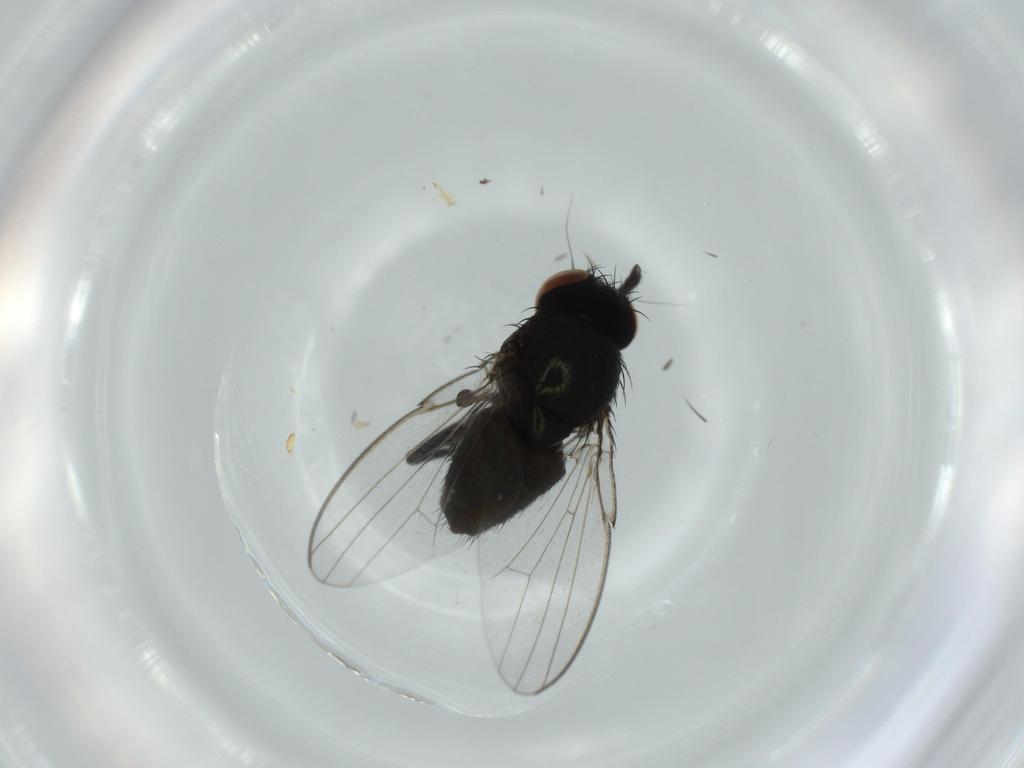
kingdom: Animalia
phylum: Arthropoda
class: Insecta
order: Diptera
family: Milichiidae
